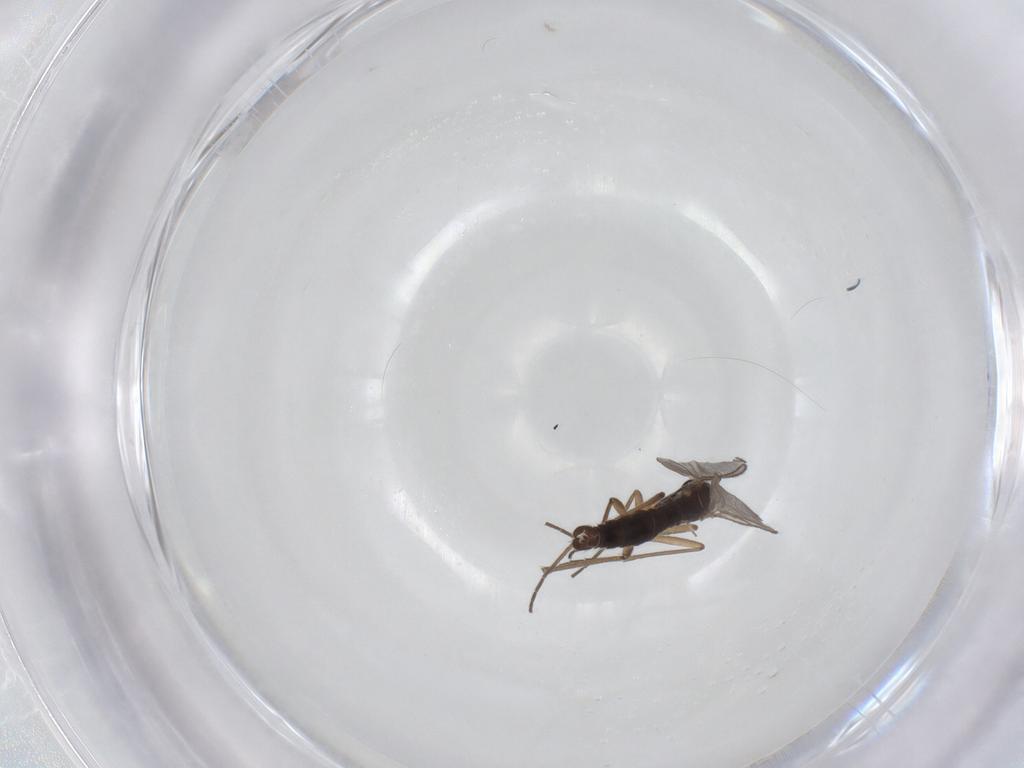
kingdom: Animalia
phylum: Arthropoda
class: Insecta
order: Diptera
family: Sciaridae
